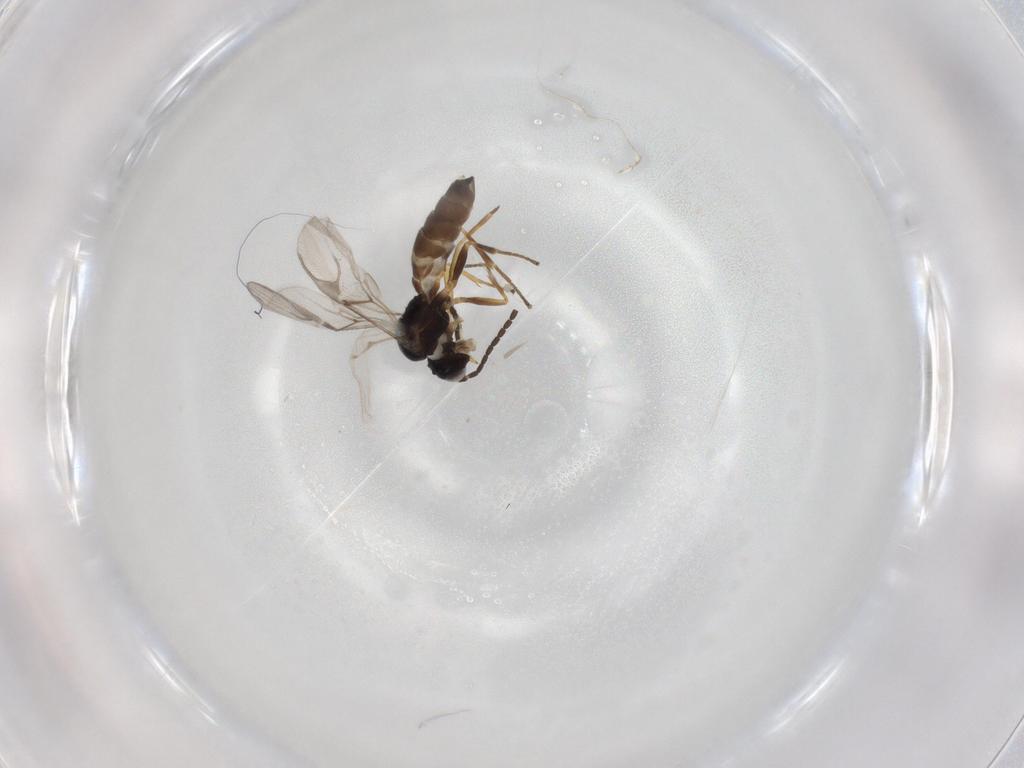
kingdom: Animalia
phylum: Arthropoda
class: Insecta
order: Hymenoptera
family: Braconidae
